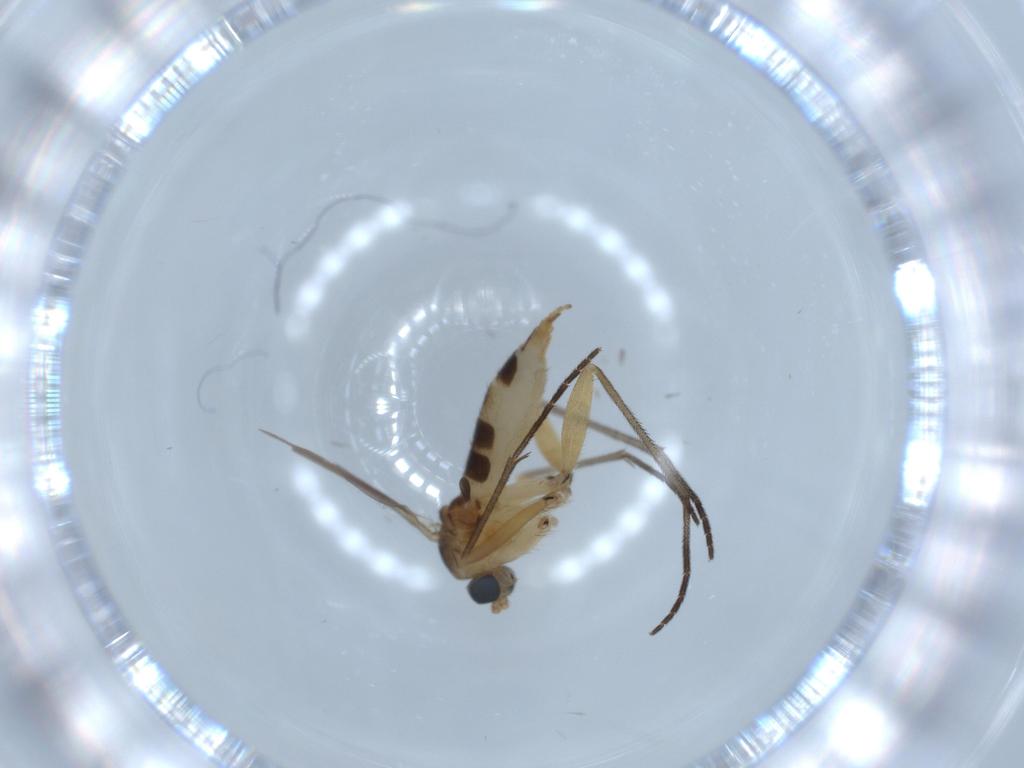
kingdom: Animalia
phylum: Arthropoda
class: Insecta
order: Diptera
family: Sciaridae
